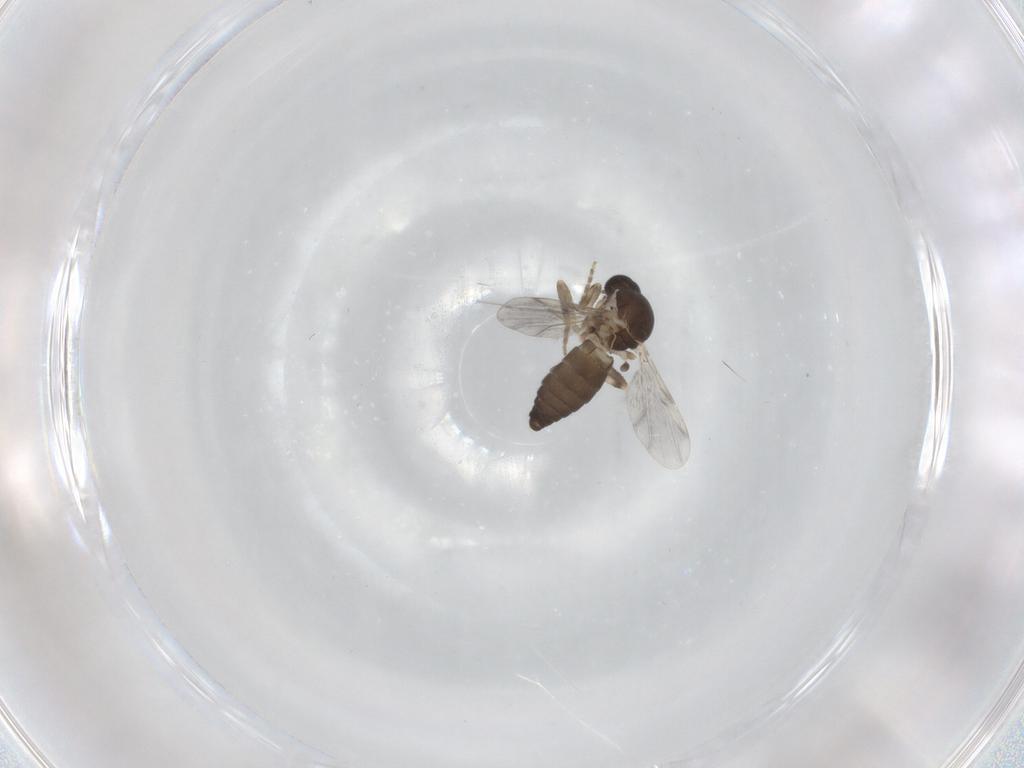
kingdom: Animalia
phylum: Arthropoda
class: Insecta
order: Diptera
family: Ceratopogonidae
